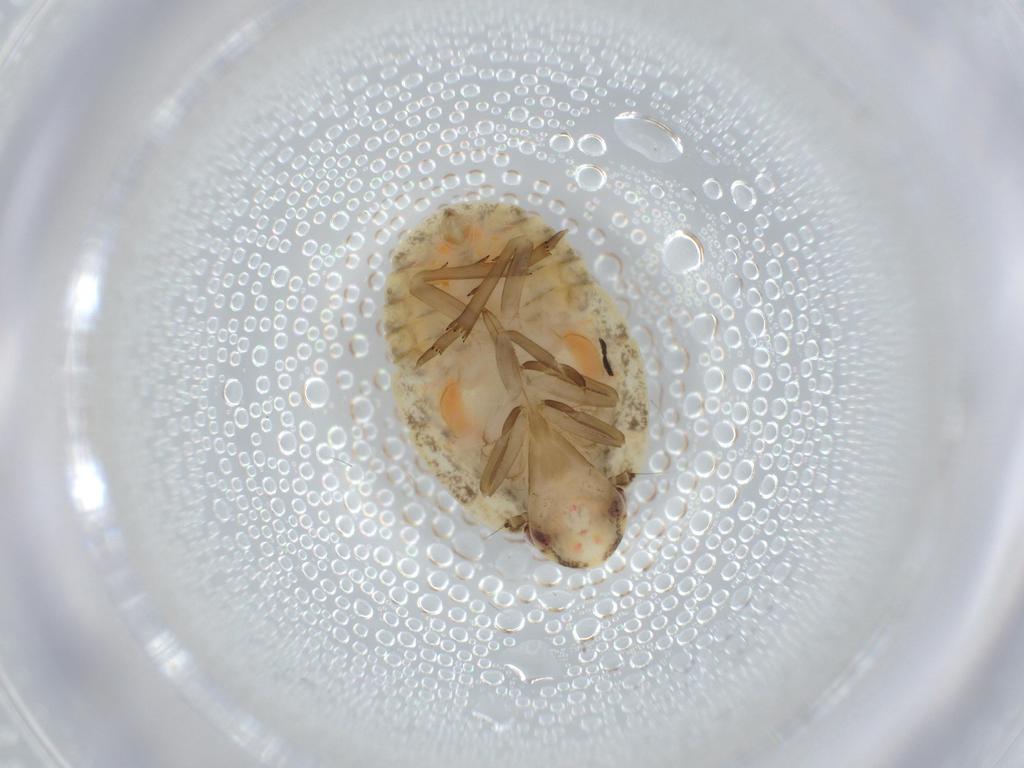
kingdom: Animalia
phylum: Arthropoda
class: Insecta
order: Hemiptera
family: Flatidae
